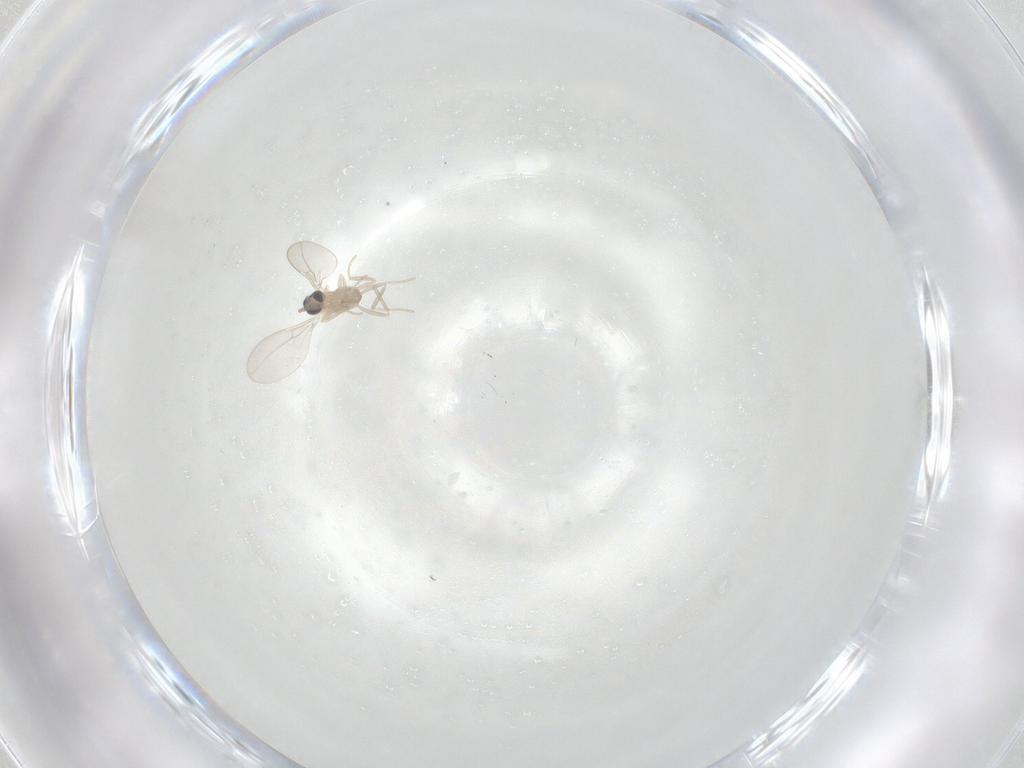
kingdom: Animalia
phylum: Arthropoda
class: Insecta
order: Diptera
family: Cecidomyiidae
